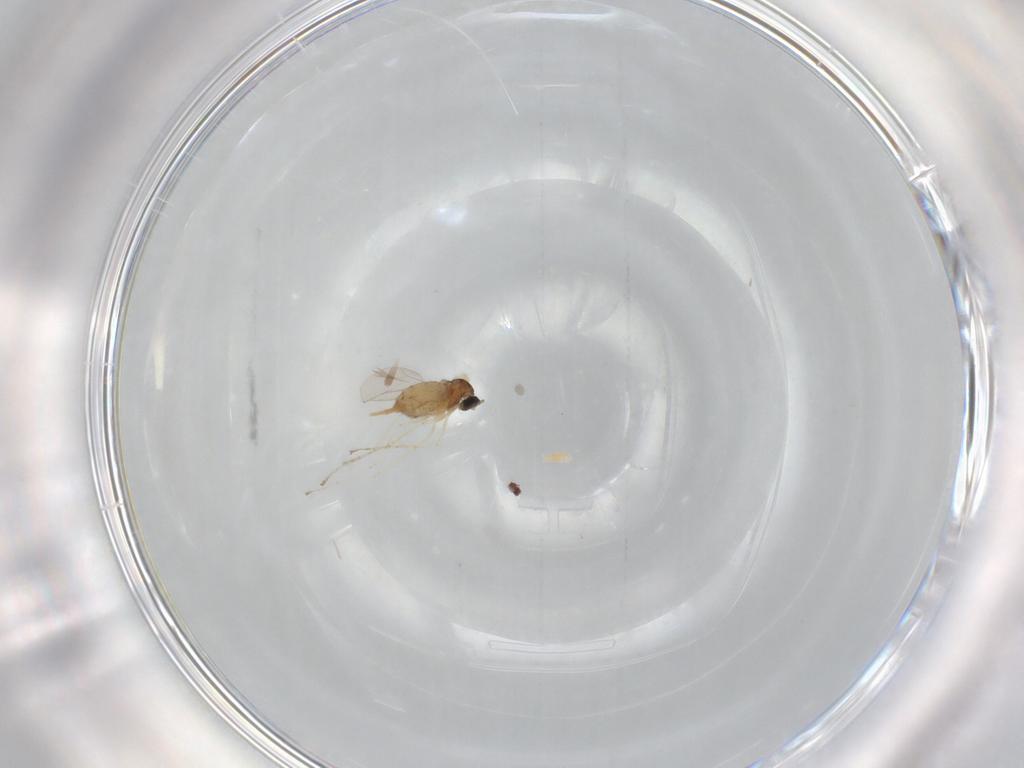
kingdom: Animalia
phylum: Arthropoda
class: Insecta
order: Diptera
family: Cecidomyiidae
